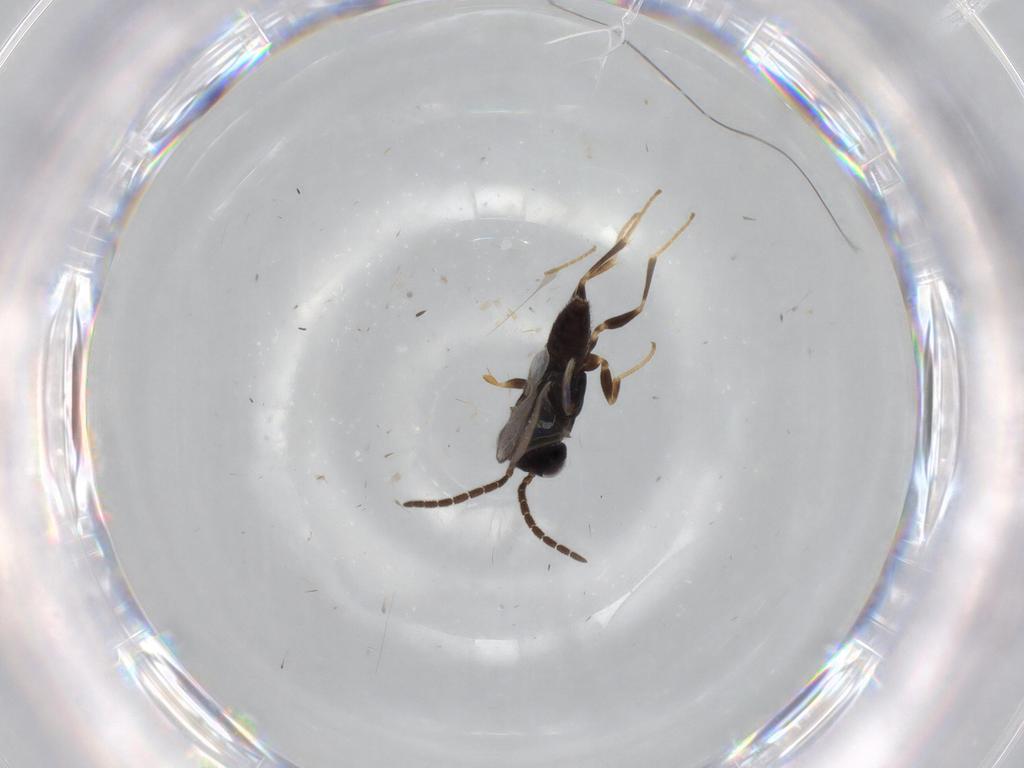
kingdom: Animalia
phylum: Arthropoda
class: Insecta
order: Hymenoptera
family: Dryinidae
